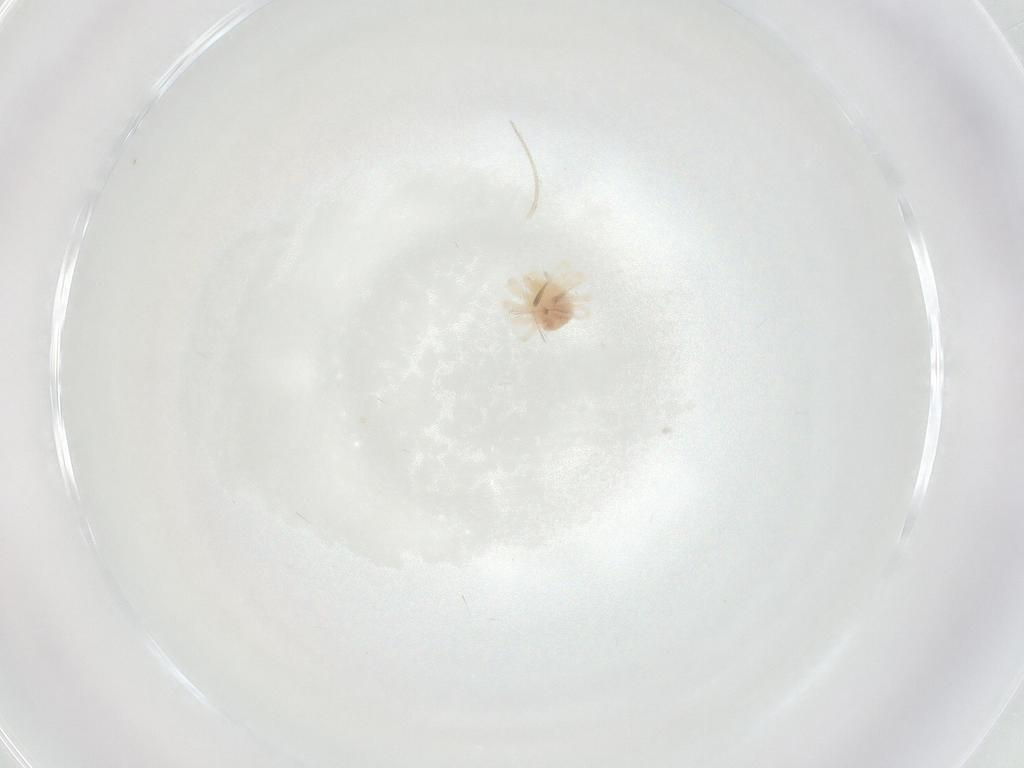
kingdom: Animalia
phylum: Arthropoda
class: Arachnida
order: Trombidiformes
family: Anystidae
